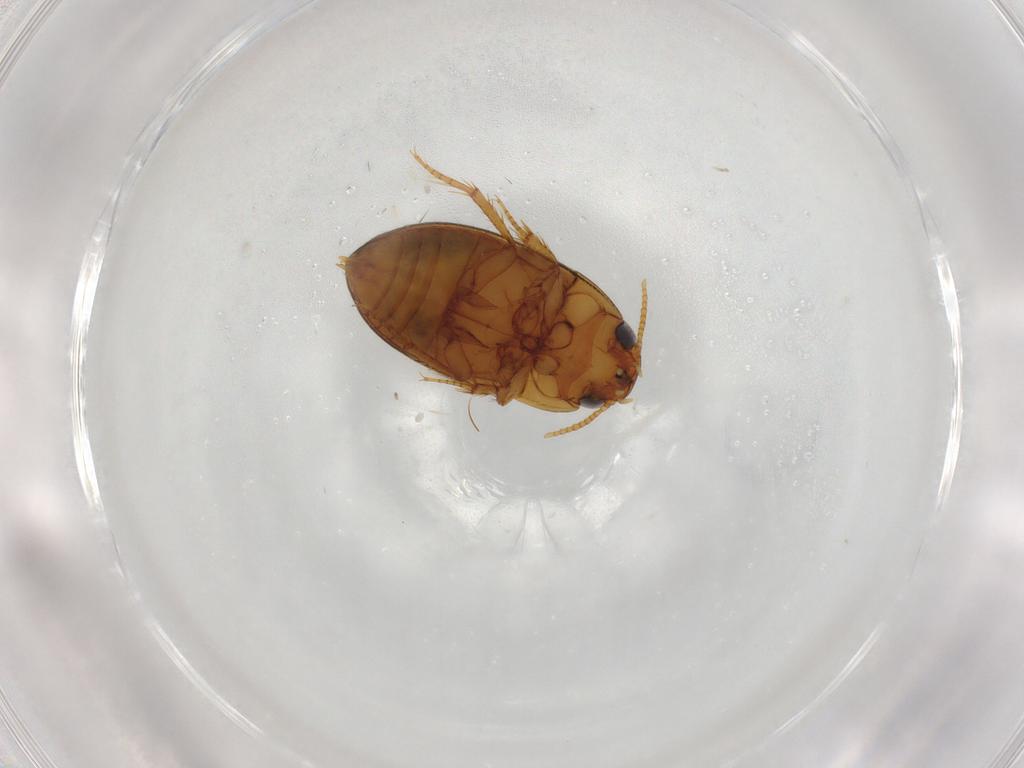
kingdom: Animalia
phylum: Arthropoda
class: Insecta
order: Coleoptera
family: Noteridae
